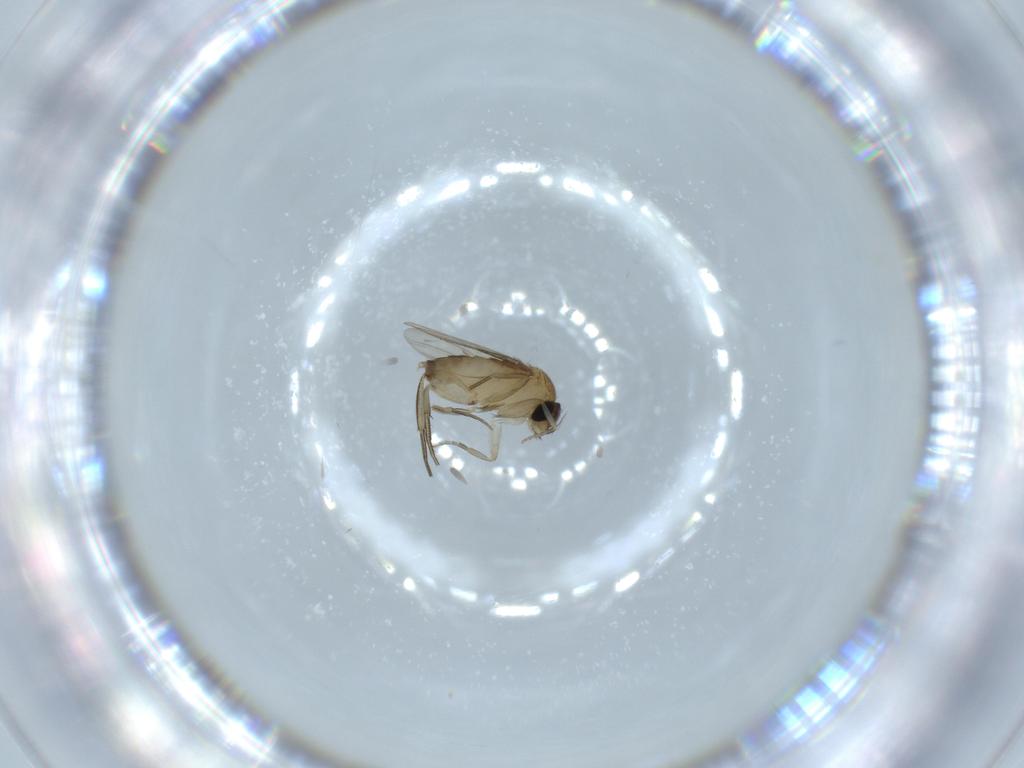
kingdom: Animalia
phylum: Arthropoda
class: Insecta
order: Diptera
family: Phoridae
